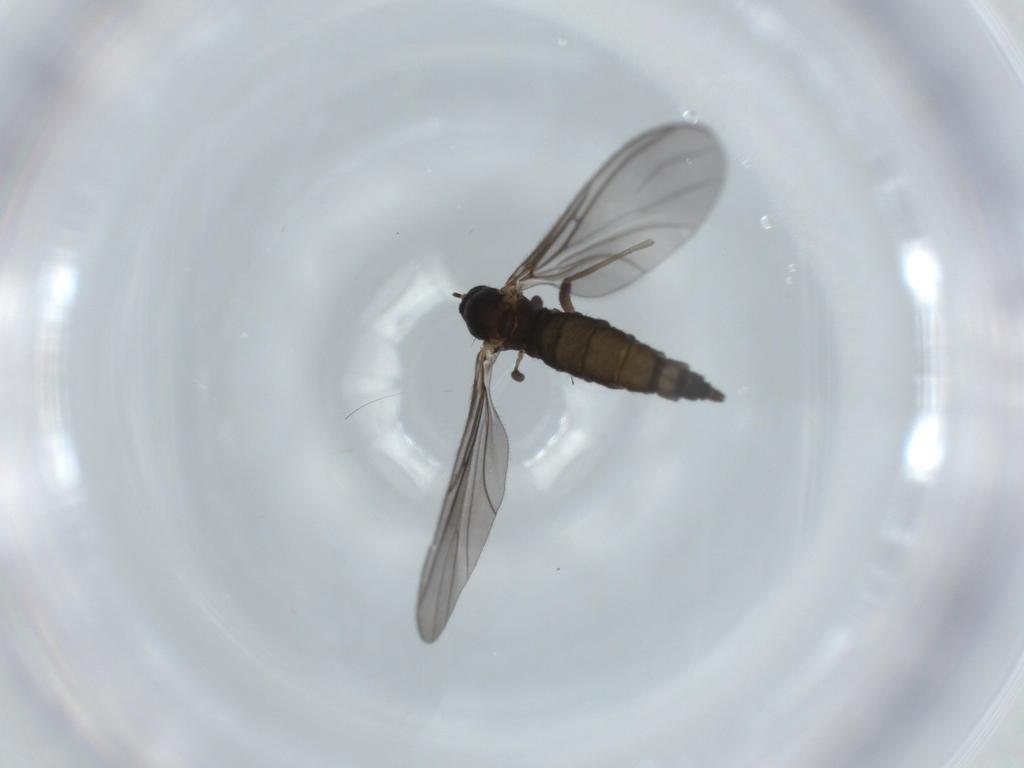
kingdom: Animalia
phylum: Arthropoda
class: Insecta
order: Diptera
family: Sciaridae
